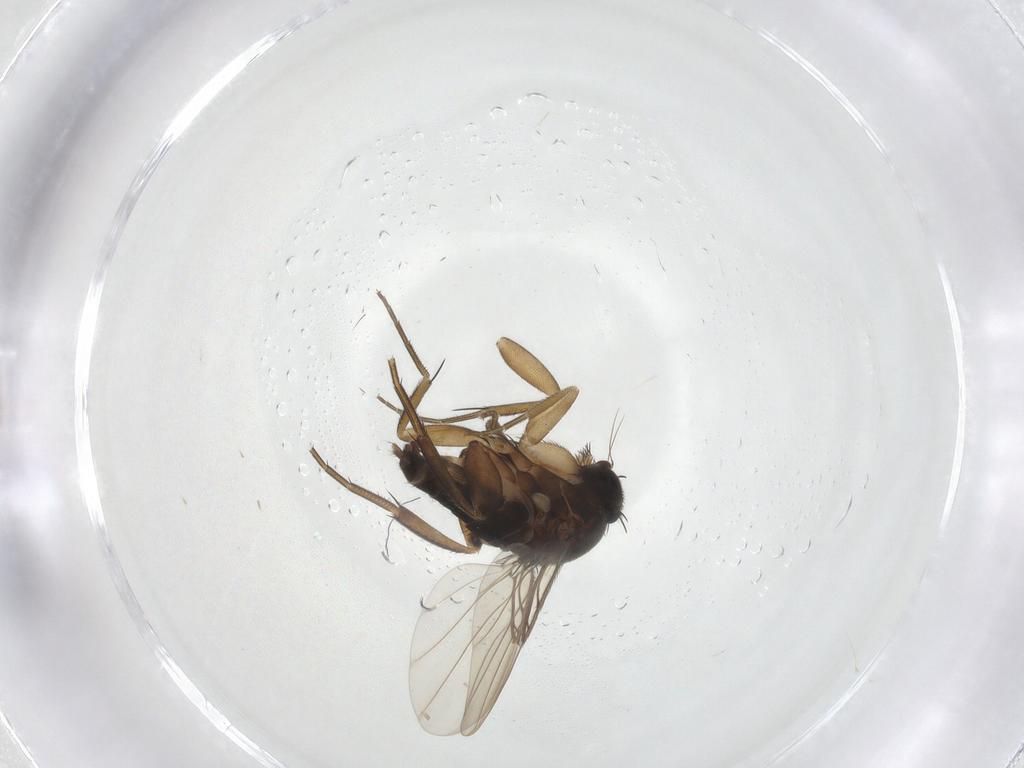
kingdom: Animalia
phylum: Arthropoda
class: Insecta
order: Diptera
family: Phoridae
